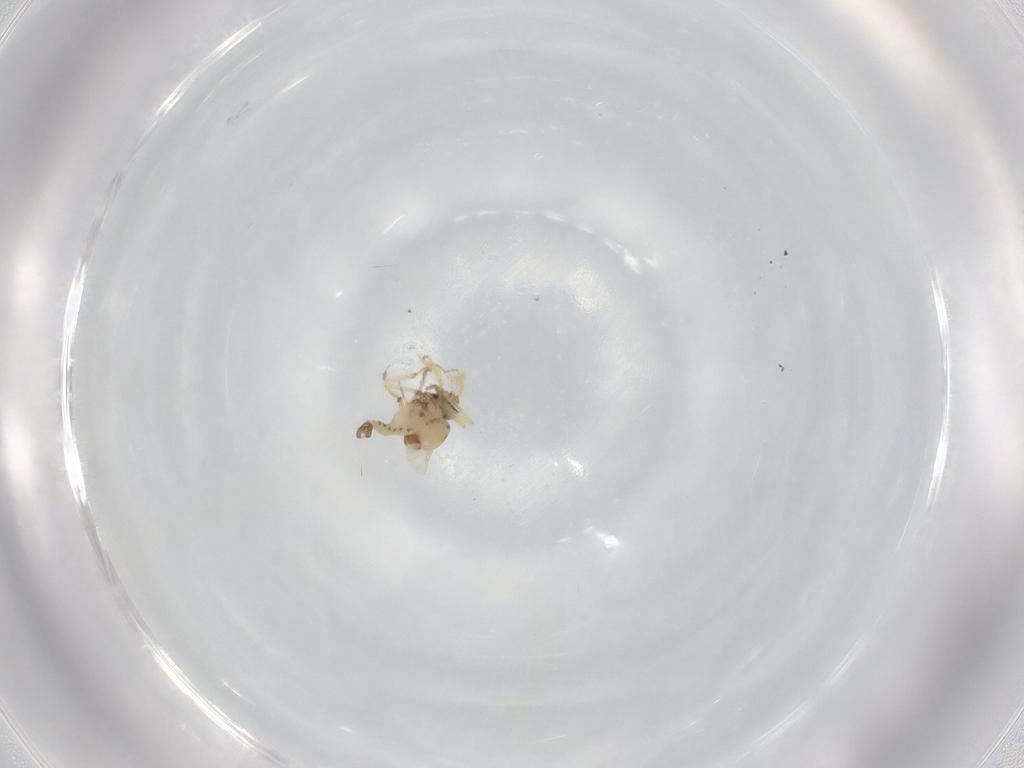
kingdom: Animalia
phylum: Arthropoda
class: Insecta
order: Diptera
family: Ceratopogonidae
